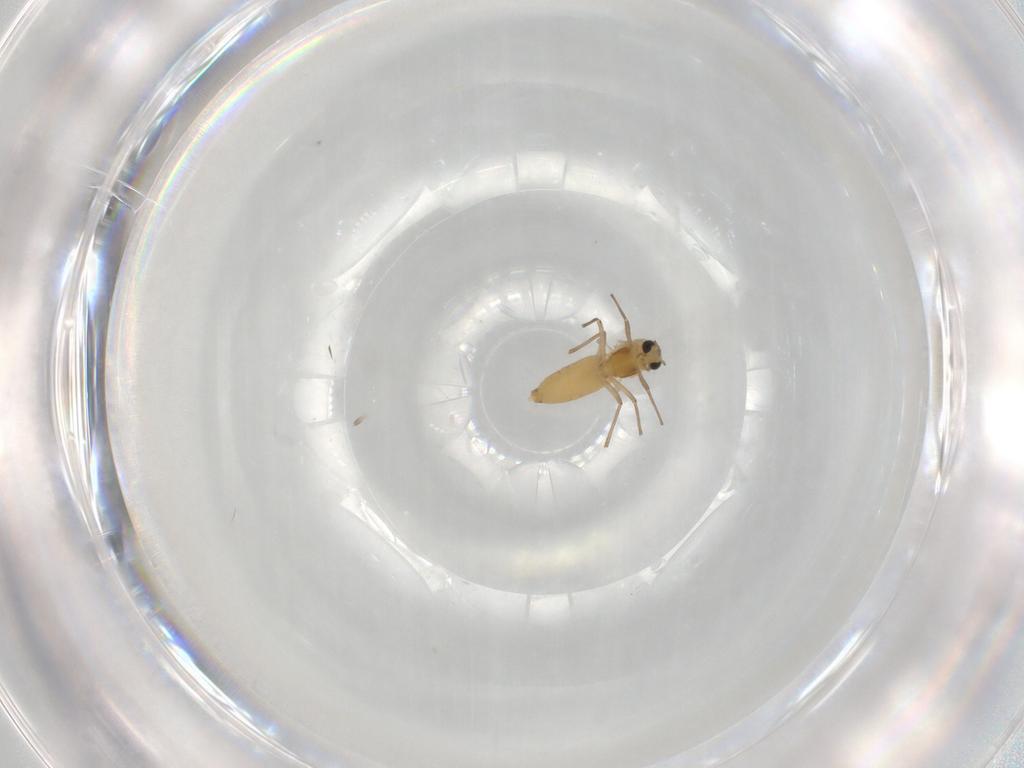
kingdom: Animalia
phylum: Arthropoda
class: Insecta
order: Diptera
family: Chironomidae
